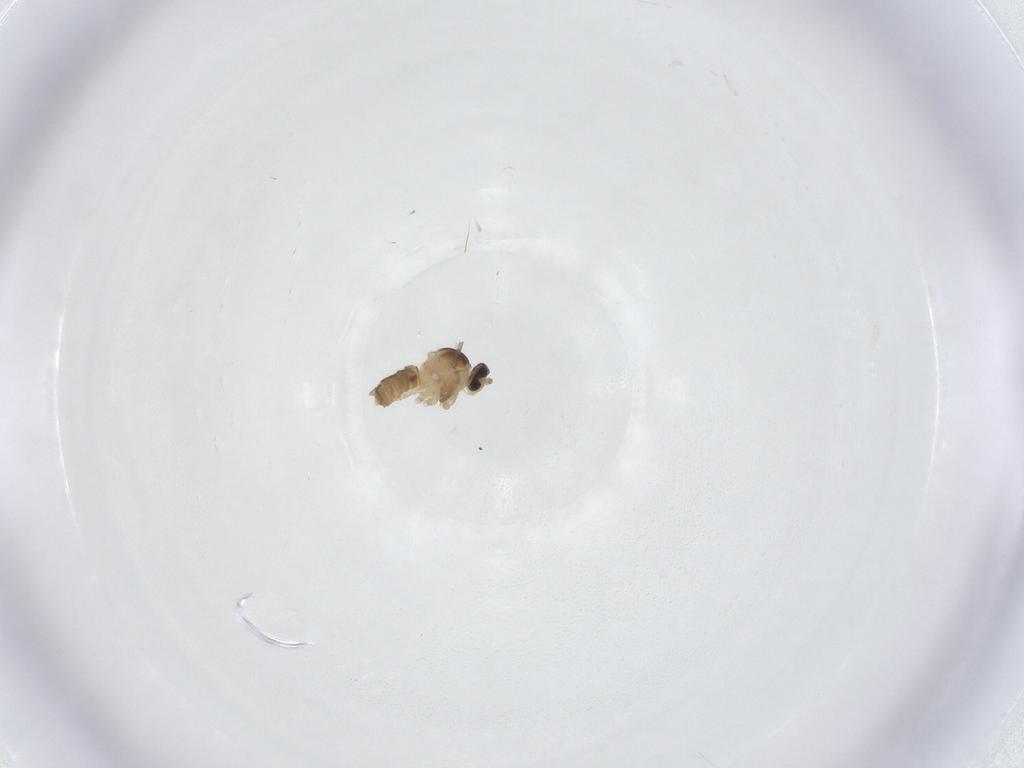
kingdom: Animalia
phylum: Arthropoda
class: Insecta
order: Diptera
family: Cecidomyiidae
